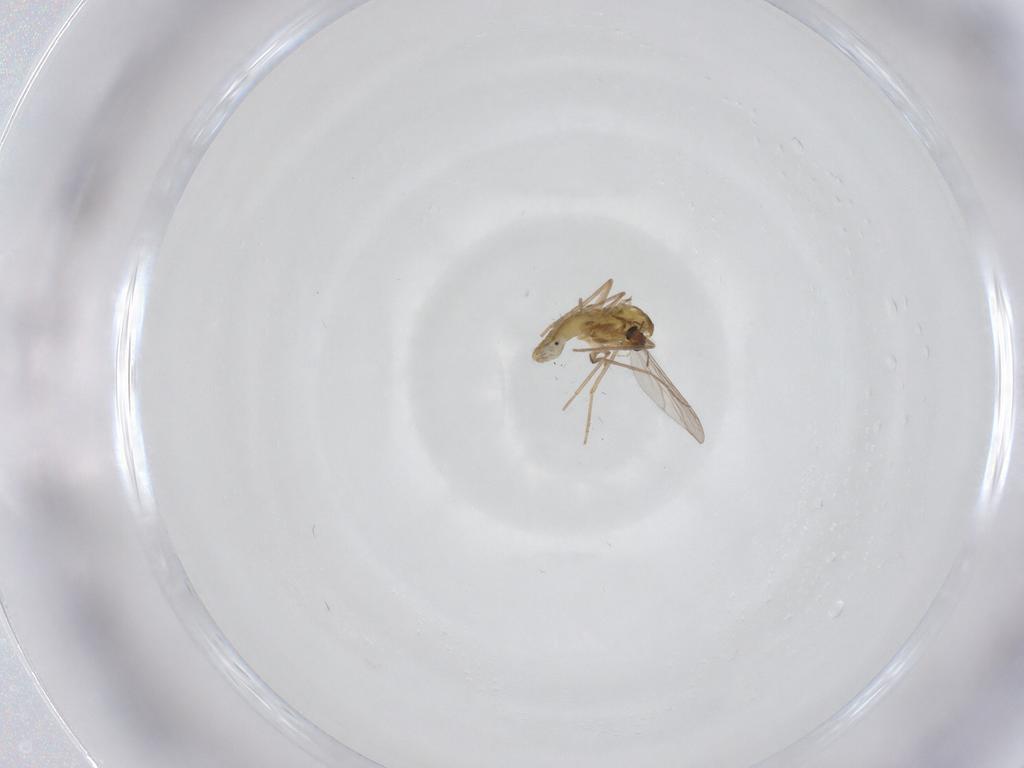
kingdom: Animalia
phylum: Arthropoda
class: Insecta
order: Diptera
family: Chironomidae
